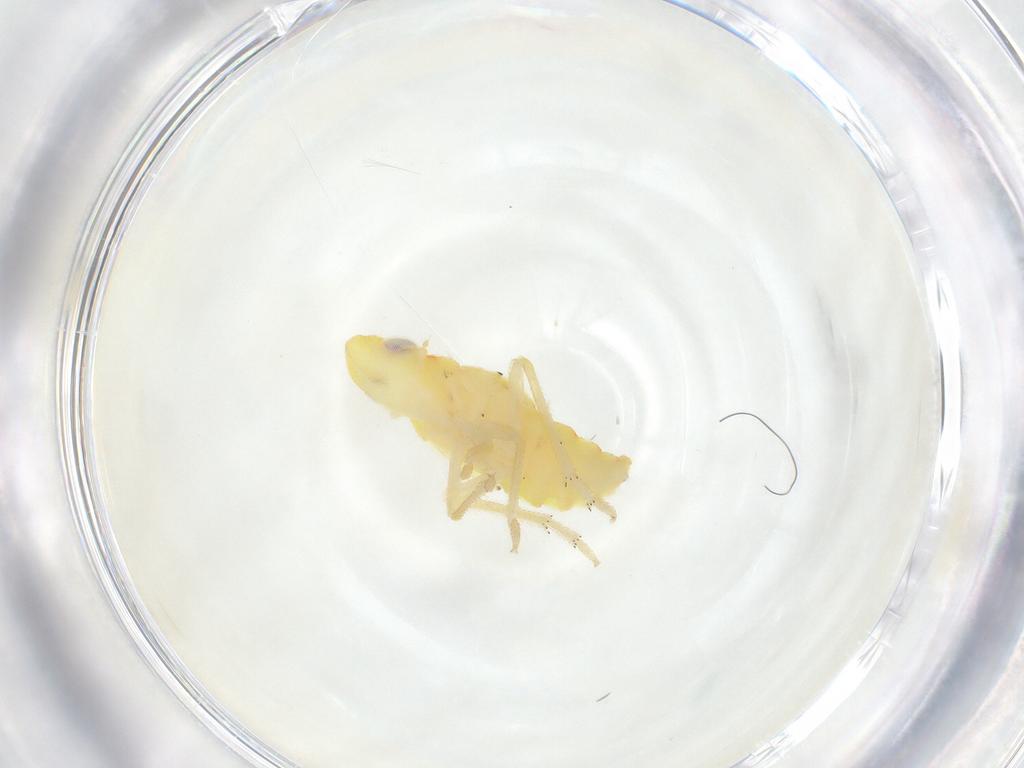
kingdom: Animalia
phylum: Arthropoda
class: Insecta
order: Hemiptera
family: Tropiduchidae
